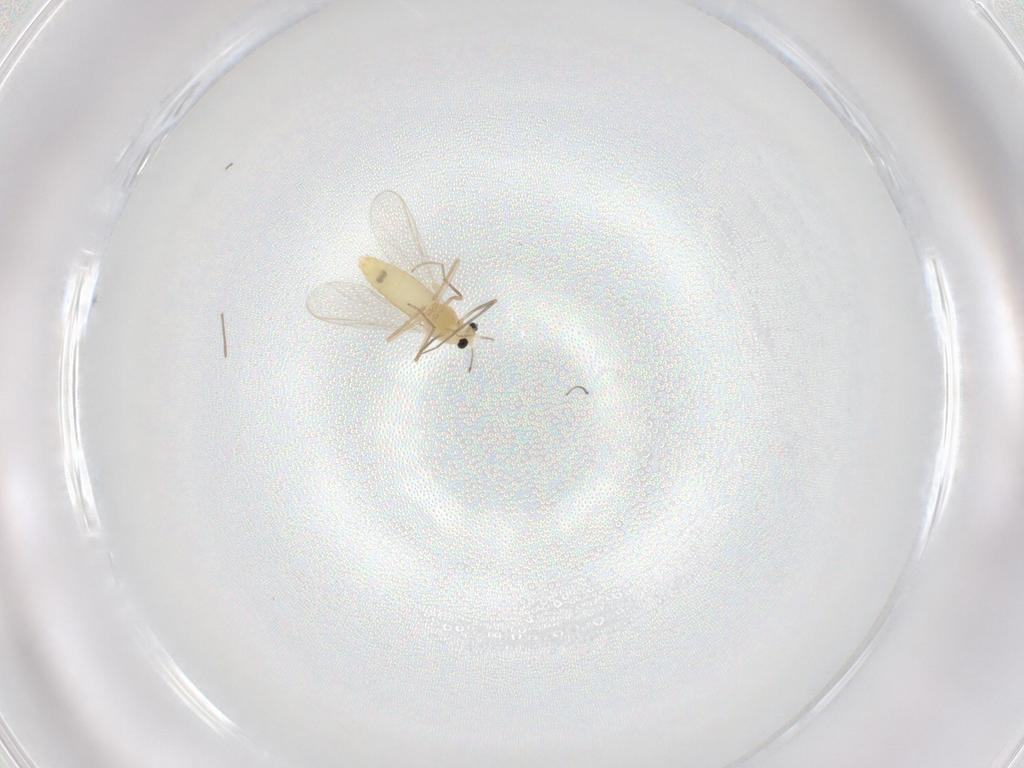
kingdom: Animalia
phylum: Arthropoda
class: Insecta
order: Diptera
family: Chironomidae
